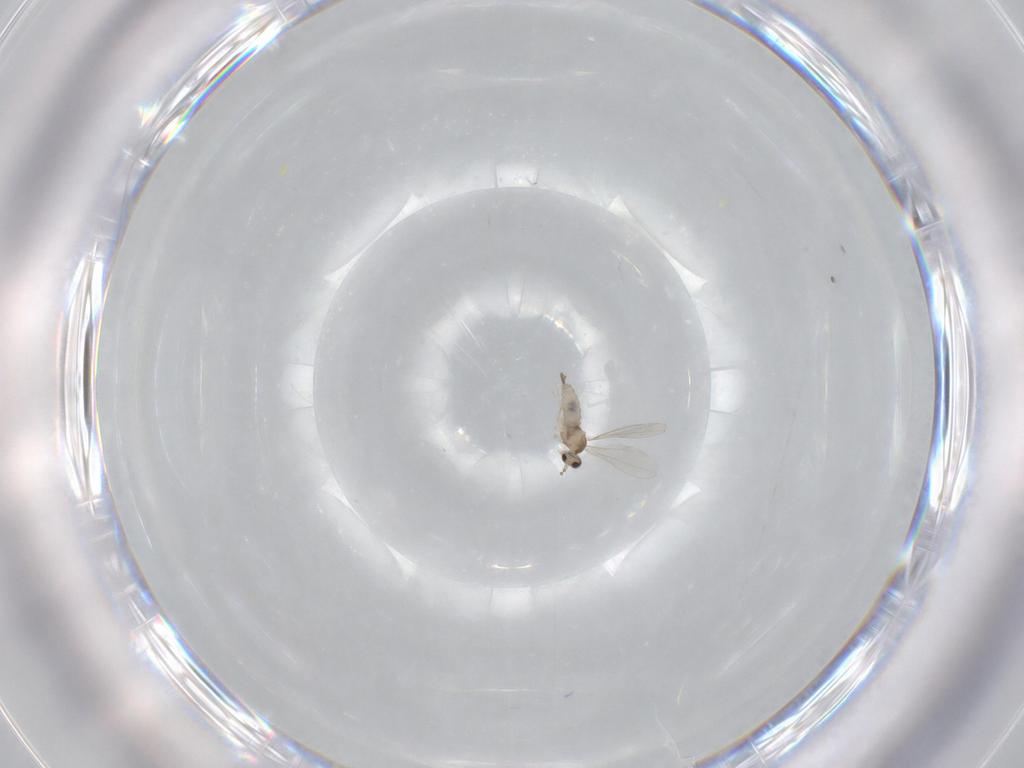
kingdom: Animalia
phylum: Arthropoda
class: Insecta
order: Diptera
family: Cecidomyiidae
